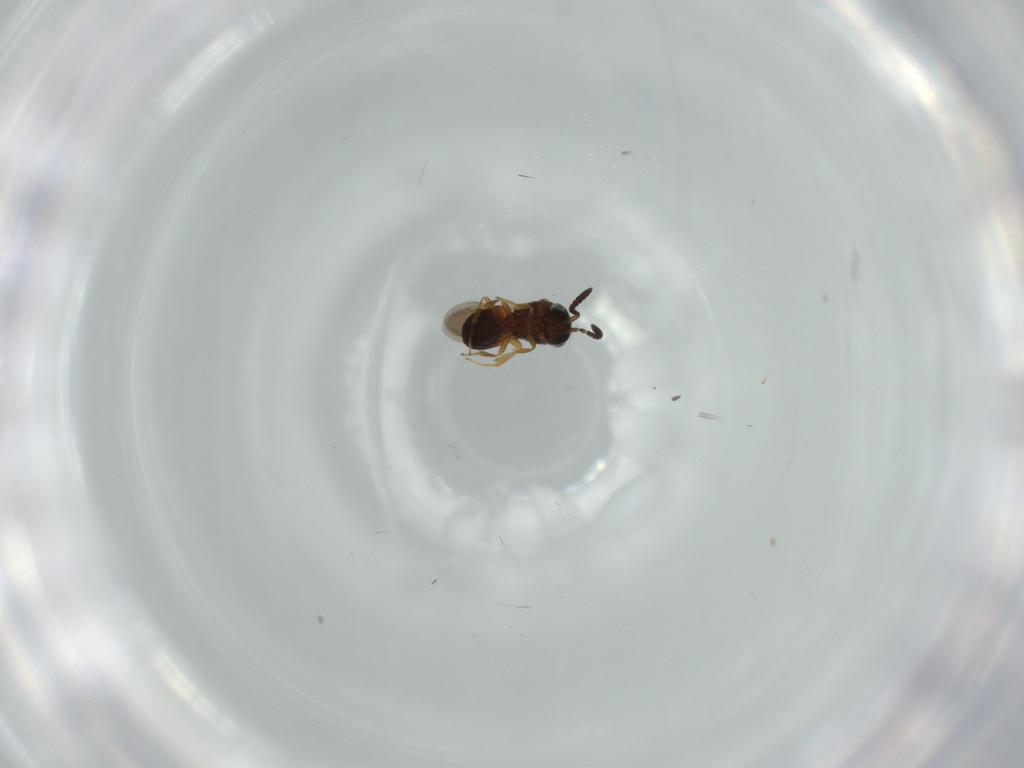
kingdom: Animalia
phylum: Arthropoda
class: Insecta
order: Hymenoptera
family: Scelionidae
